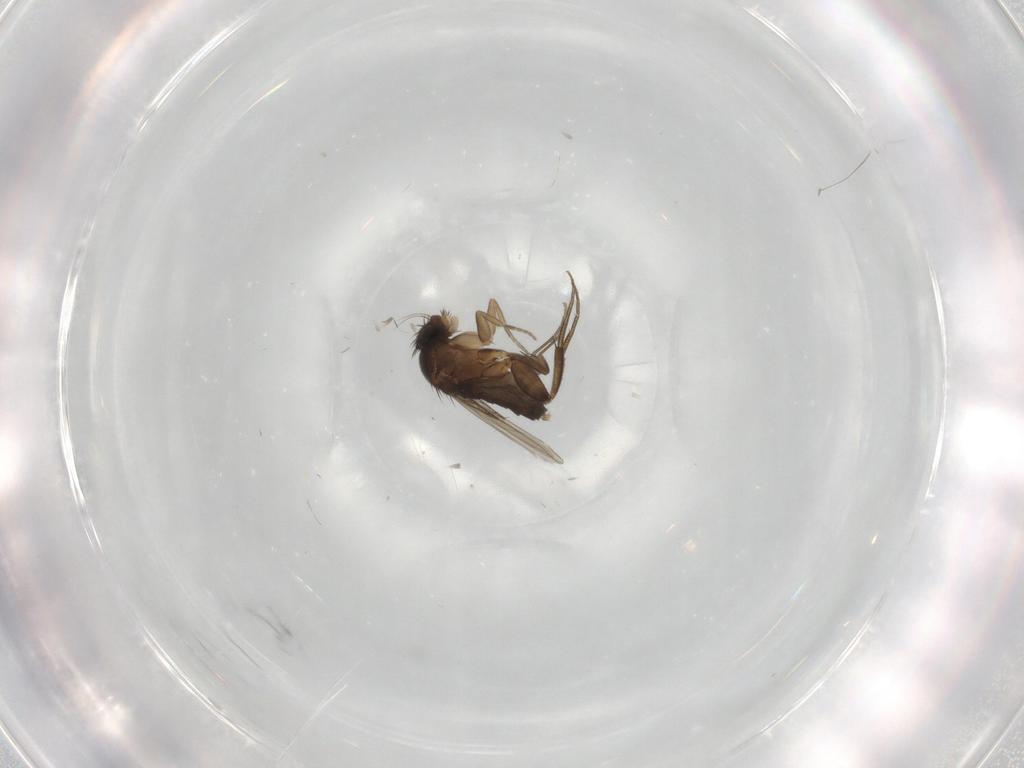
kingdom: Animalia
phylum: Arthropoda
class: Insecta
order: Diptera
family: Phoridae
